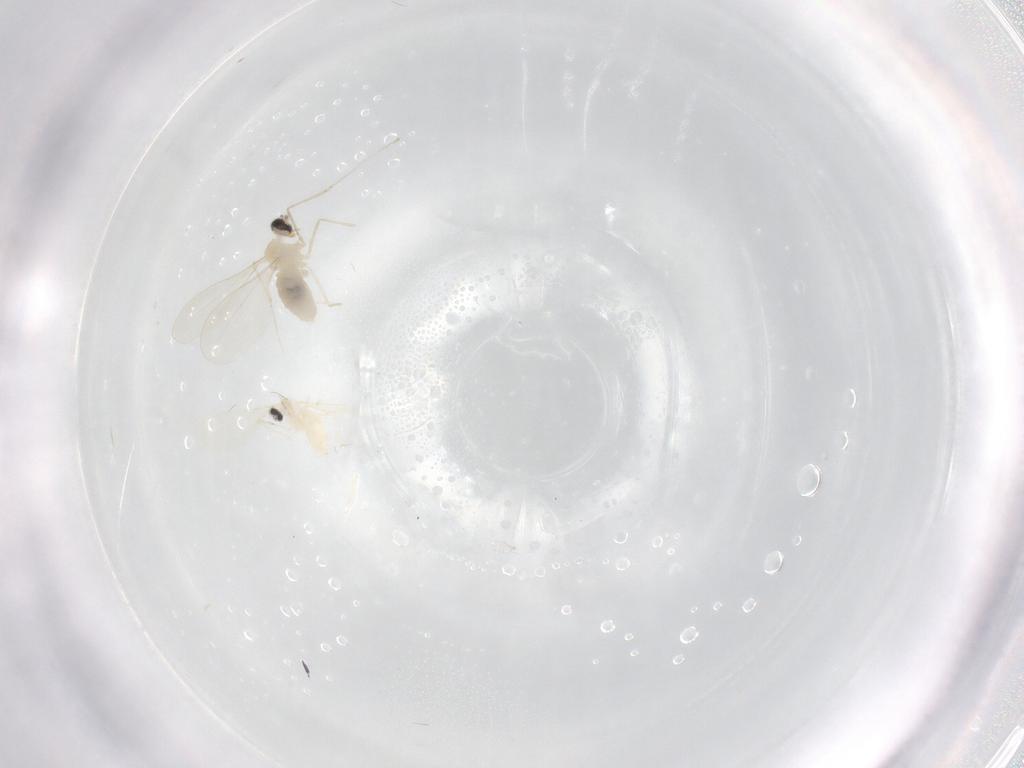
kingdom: Animalia
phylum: Arthropoda
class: Insecta
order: Diptera
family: Cecidomyiidae
